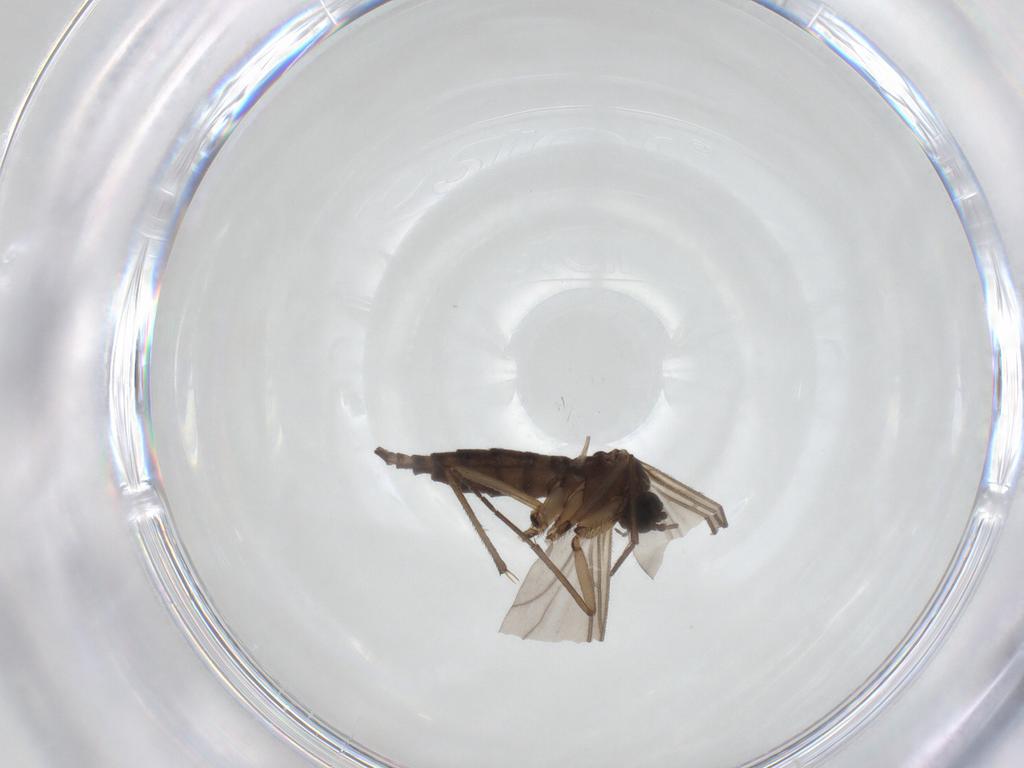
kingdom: Animalia
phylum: Arthropoda
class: Insecta
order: Diptera
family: Sciaridae
